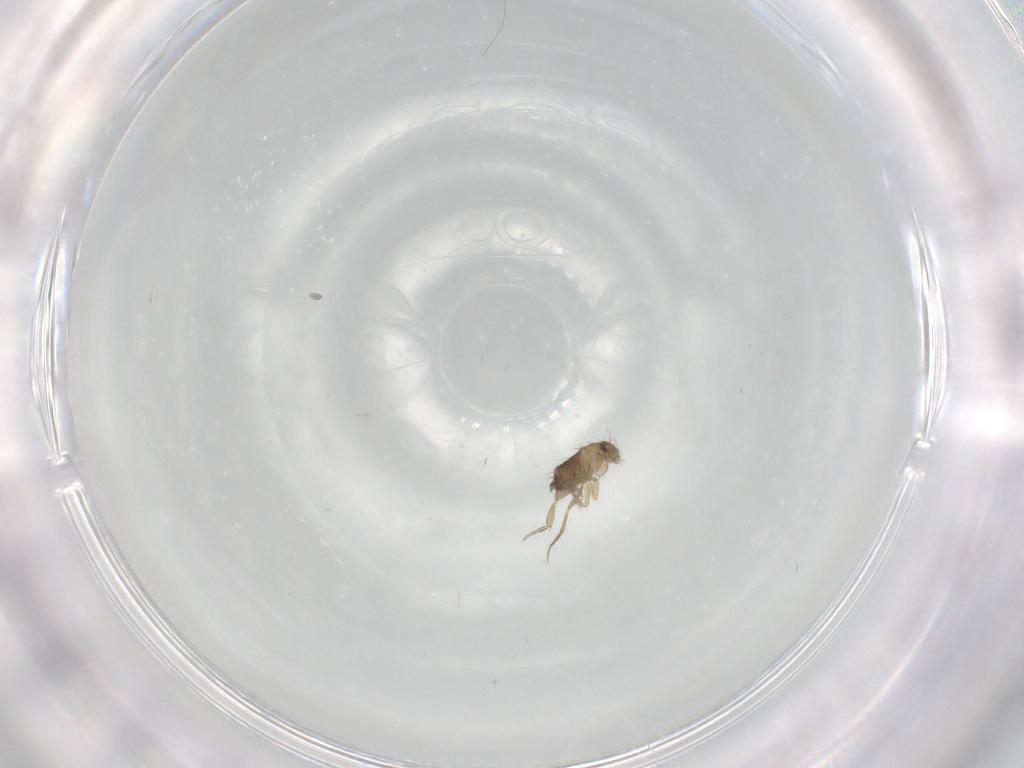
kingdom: Animalia
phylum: Arthropoda
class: Insecta
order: Diptera
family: Phoridae
